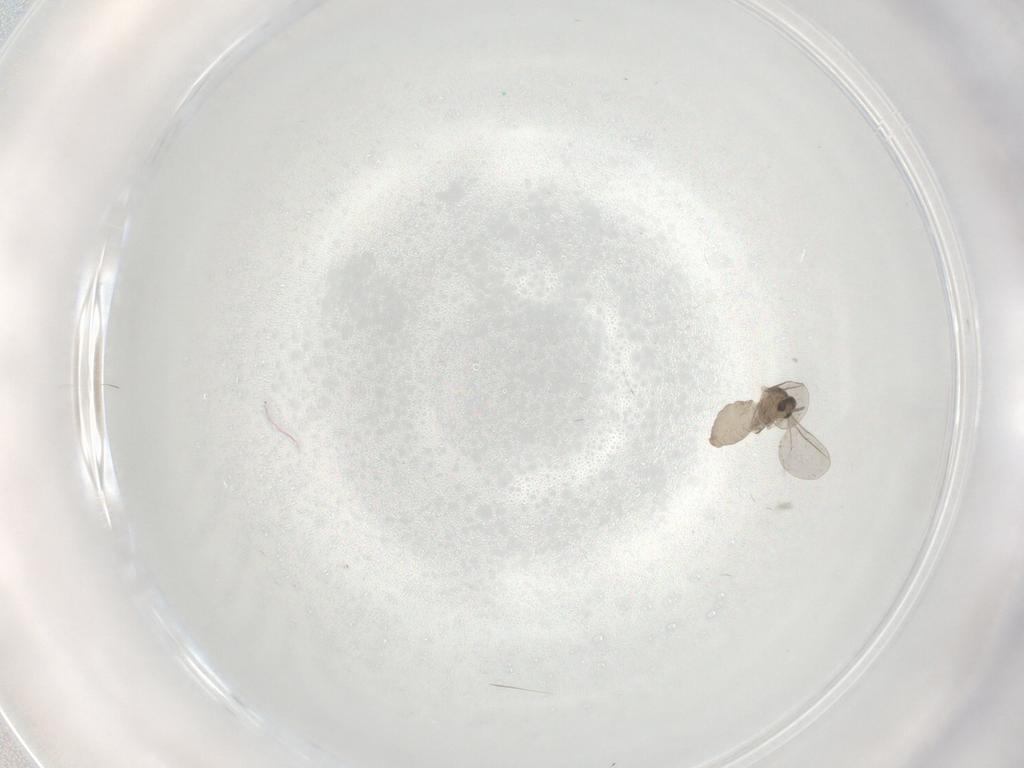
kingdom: Animalia
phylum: Arthropoda
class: Insecta
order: Diptera
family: Cecidomyiidae
